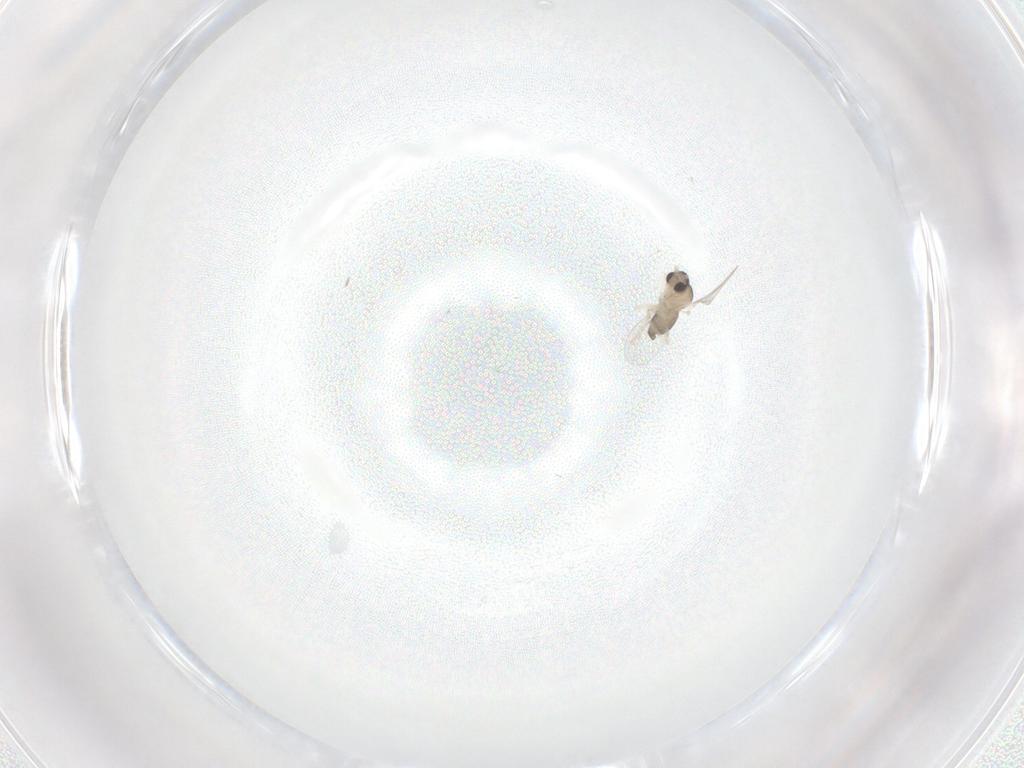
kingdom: Animalia
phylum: Arthropoda
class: Insecta
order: Diptera
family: Cecidomyiidae
